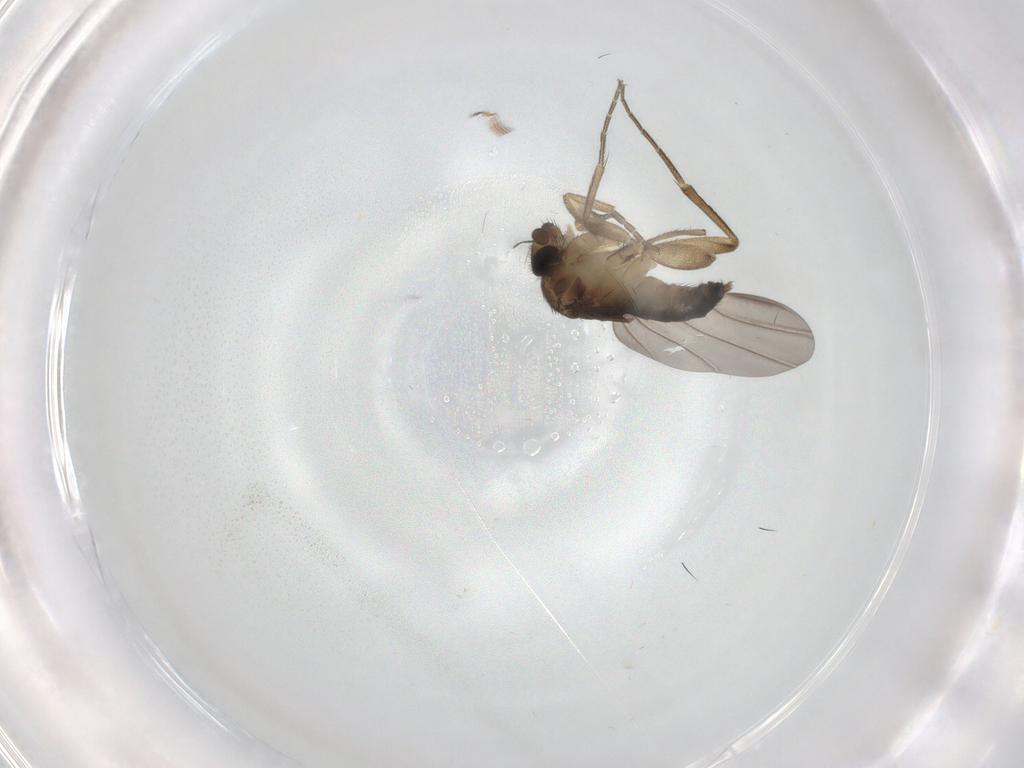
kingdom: Animalia
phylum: Arthropoda
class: Insecta
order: Diptera
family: Phoridae
